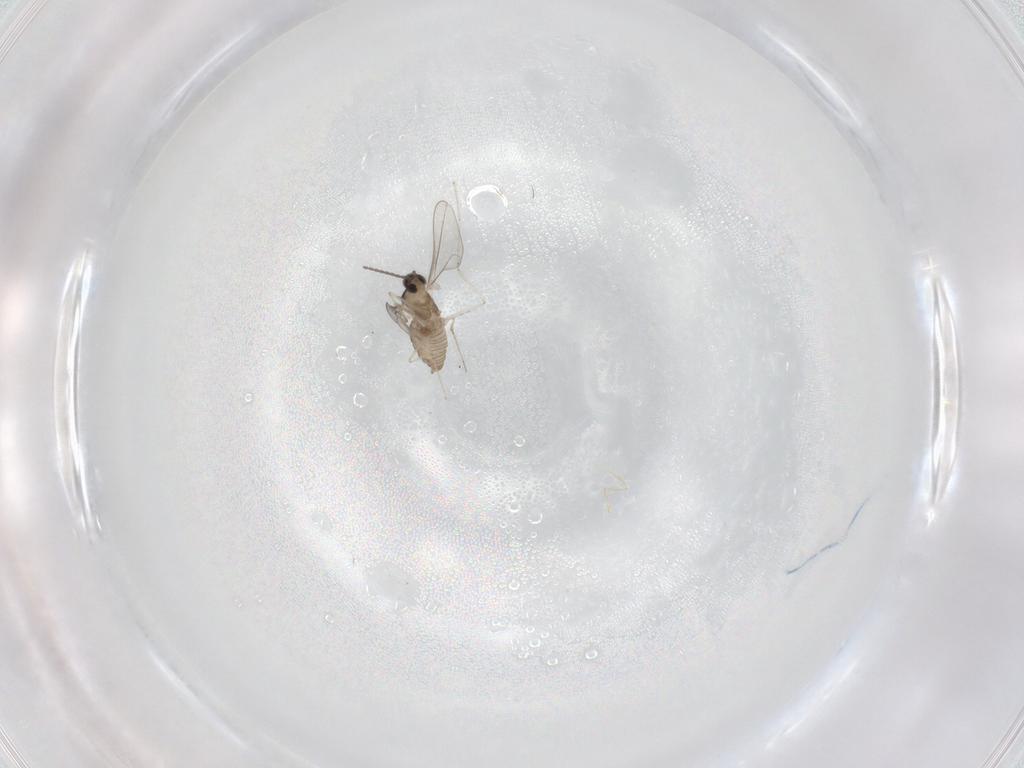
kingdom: Animalia
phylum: Arthropoda
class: Insecta
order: Diptera
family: Cecidomyiidae
